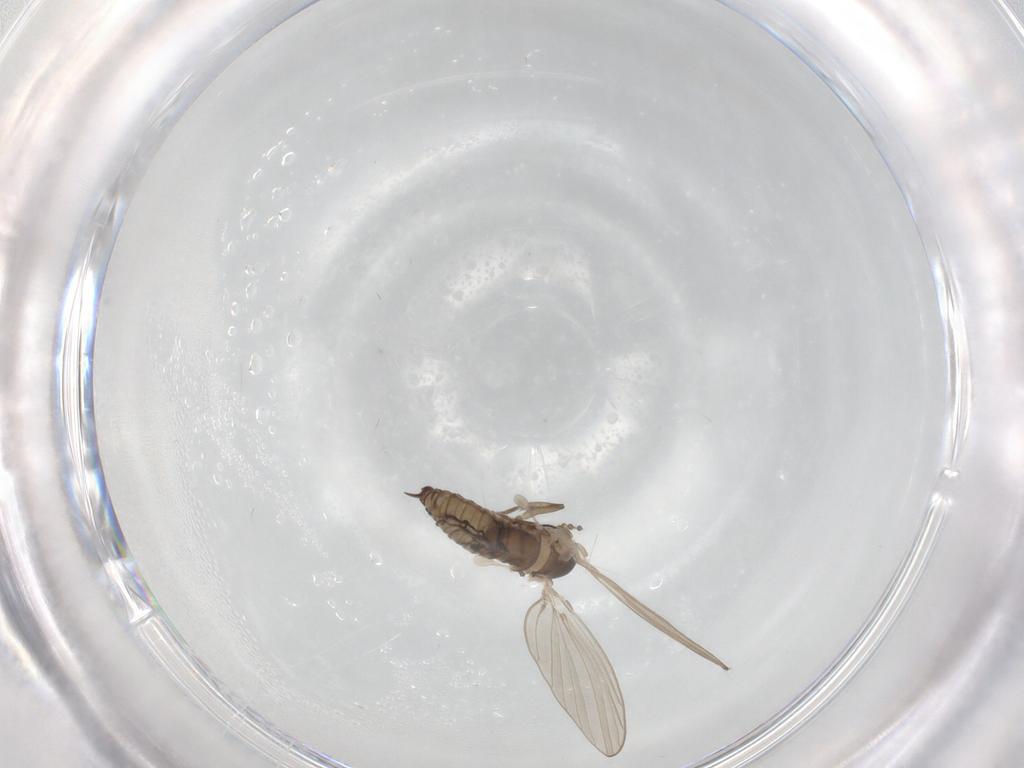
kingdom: Animalia
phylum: Arthropoda
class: Insecta
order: Diptera
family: Psychodidae
